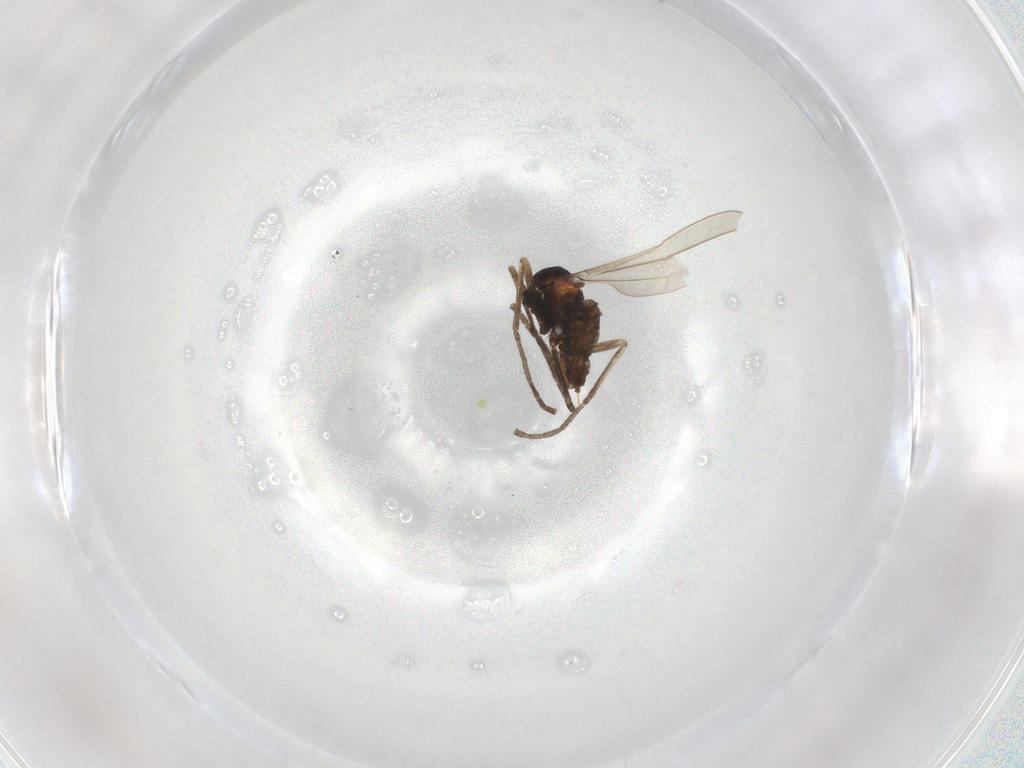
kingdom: Animalia
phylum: Arthropoda
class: Insecta
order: Diptera
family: Cecidomyiidae
